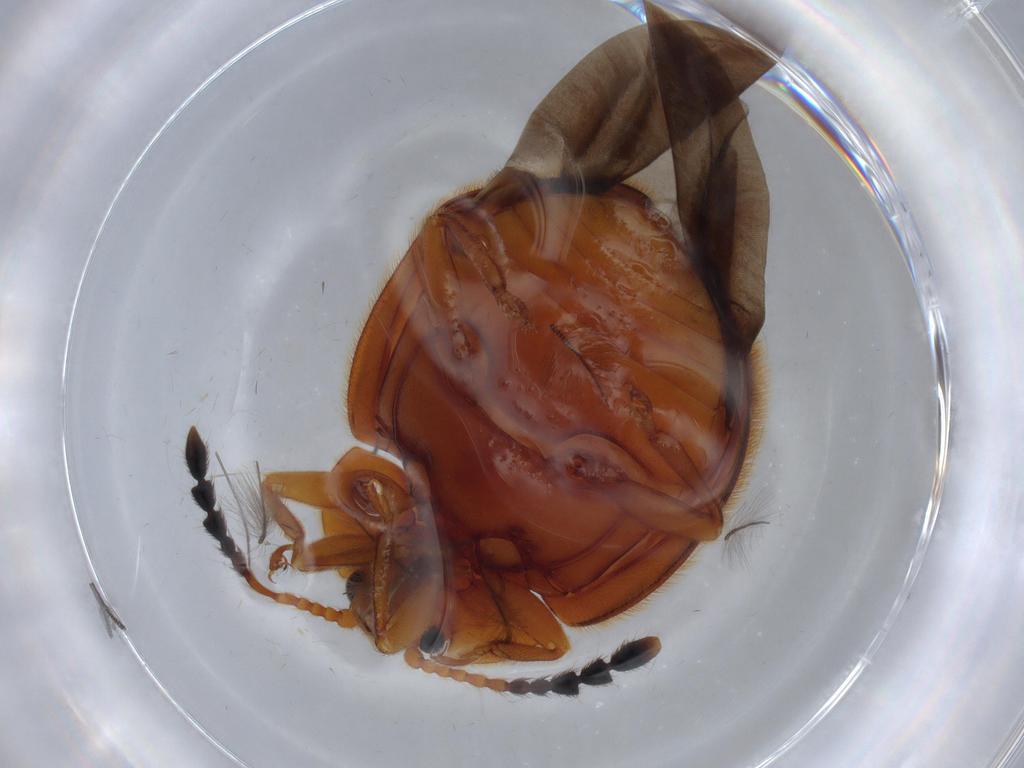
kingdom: Animalia
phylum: Arthropoda
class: Insecta
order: Coleoptera
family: Endomychidae
